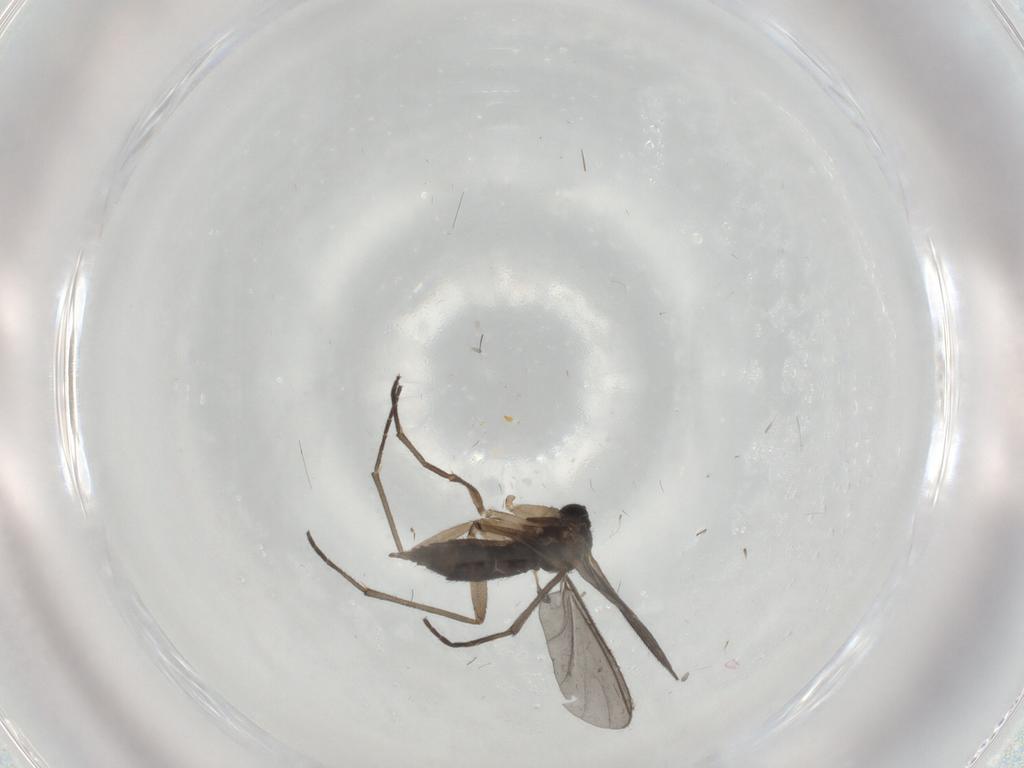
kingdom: Animalia
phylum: Arthropoda
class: Insecta
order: Diptera
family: Sciaridae
